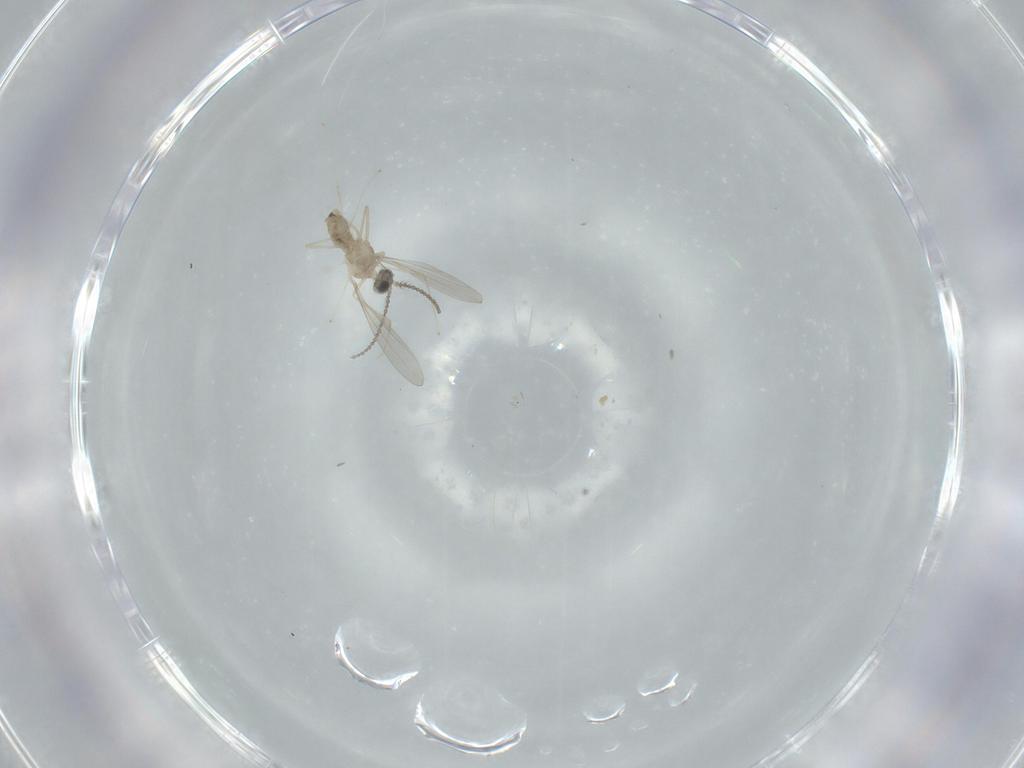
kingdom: Animalia
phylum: Arthropoda
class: Insecta
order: Diptera
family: Cecidomyiidae
